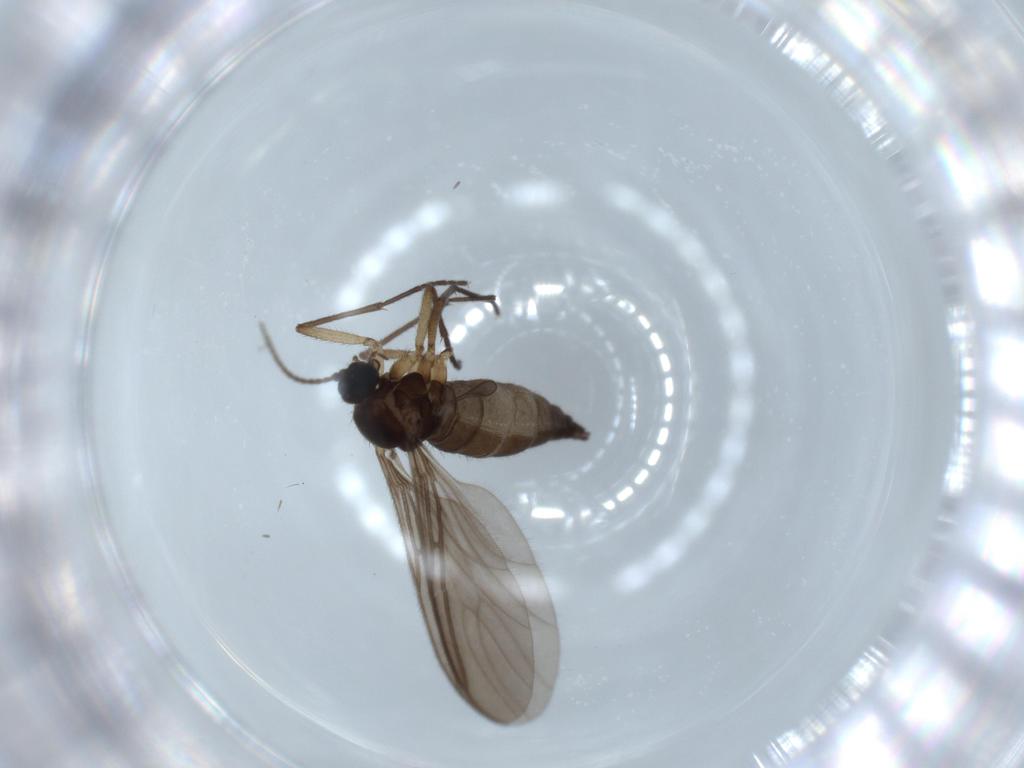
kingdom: Animalia
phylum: Arthropoda
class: Insecta
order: Diptera
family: Sciaridae
